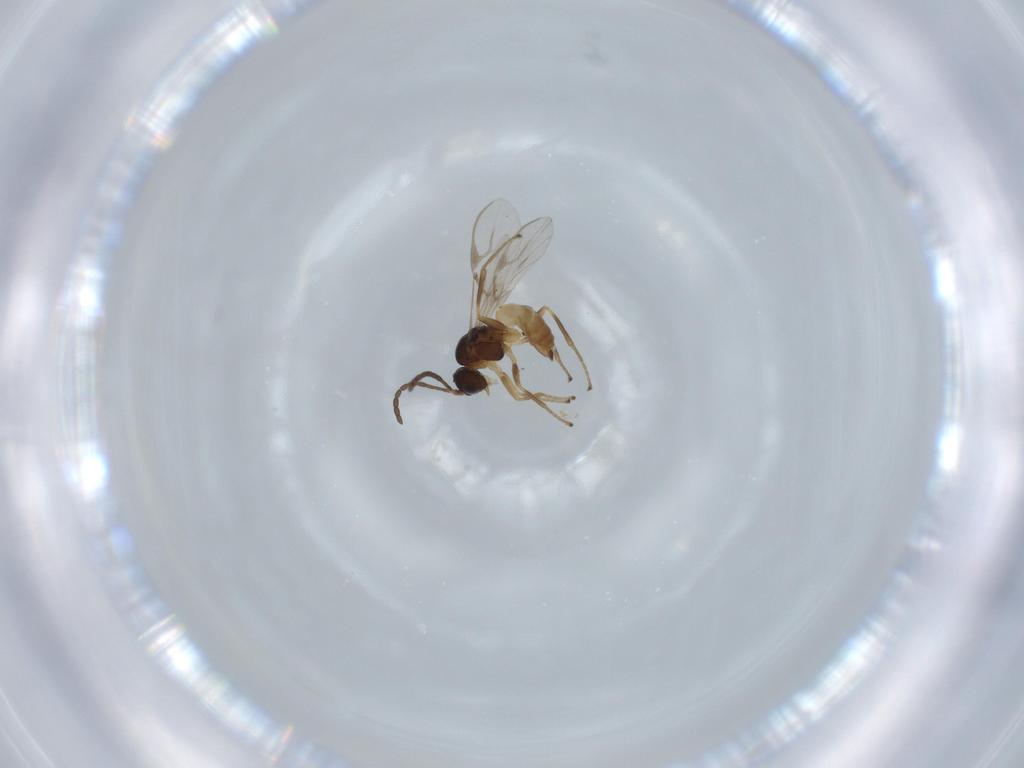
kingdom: Animalia
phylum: Arthropoda
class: Insecta
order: Hymenoptera
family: Braconidae
